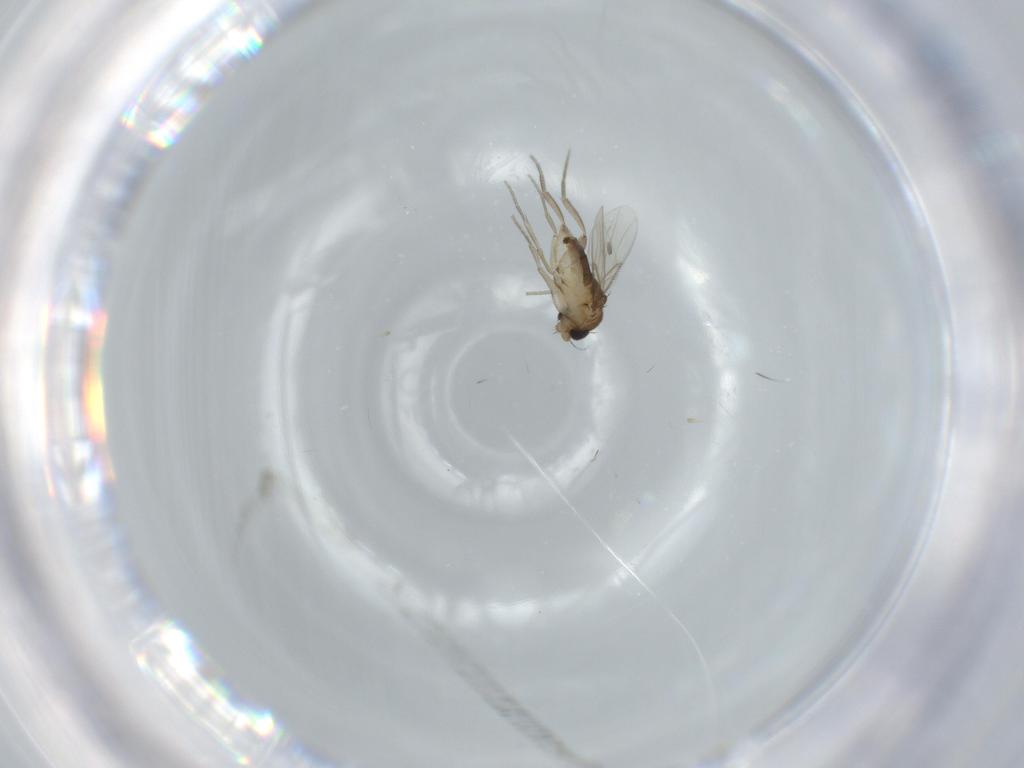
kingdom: Animalia
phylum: Arthropoda
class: Insecta
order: Diptera
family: Phoridae
